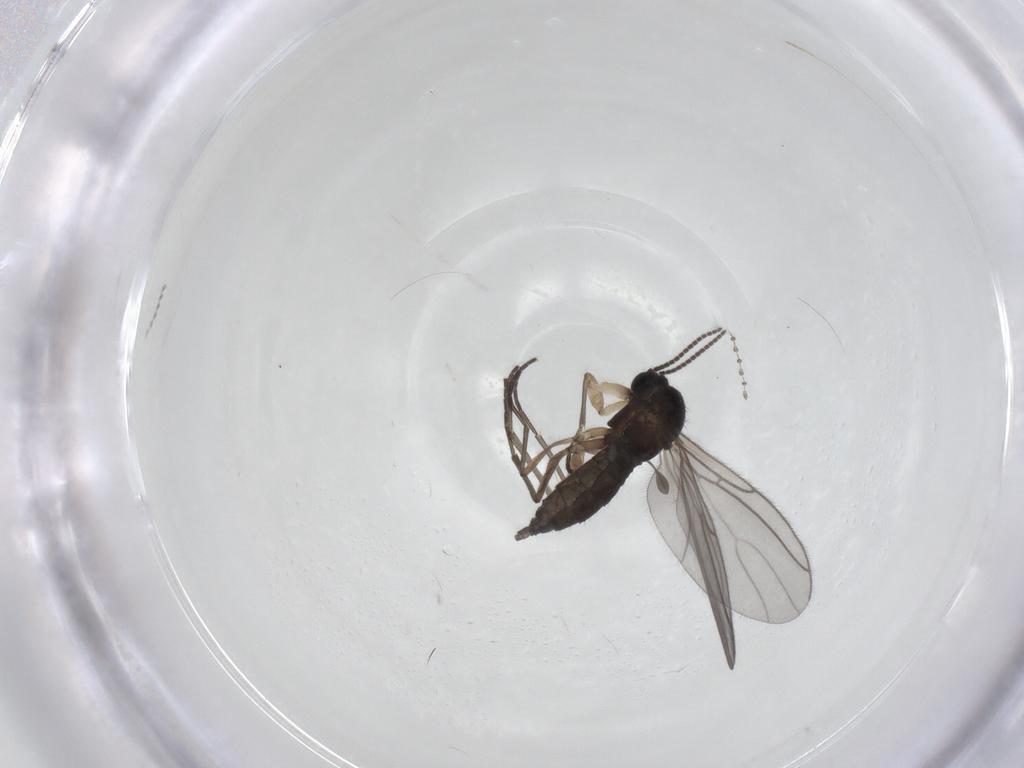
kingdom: Animalia
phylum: Arthropoda
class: Insecta
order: Diptera
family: Sciaridae
